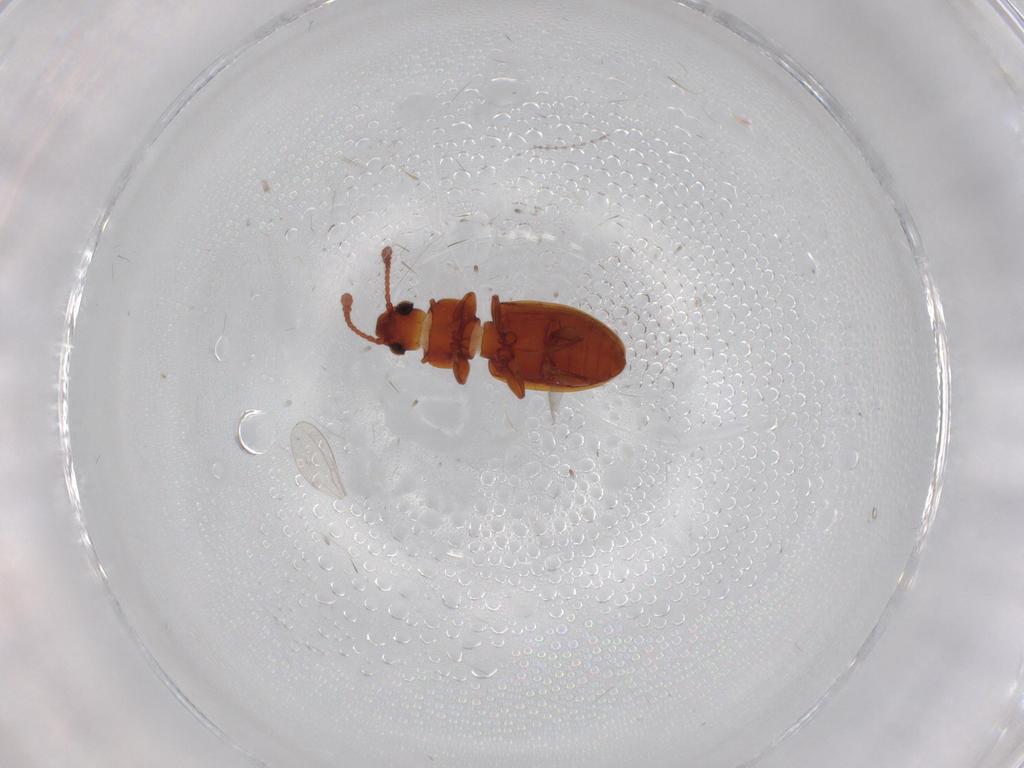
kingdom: Animalia
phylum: Arthropoda
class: Insecta
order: Coleoptera
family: Silvanidae
